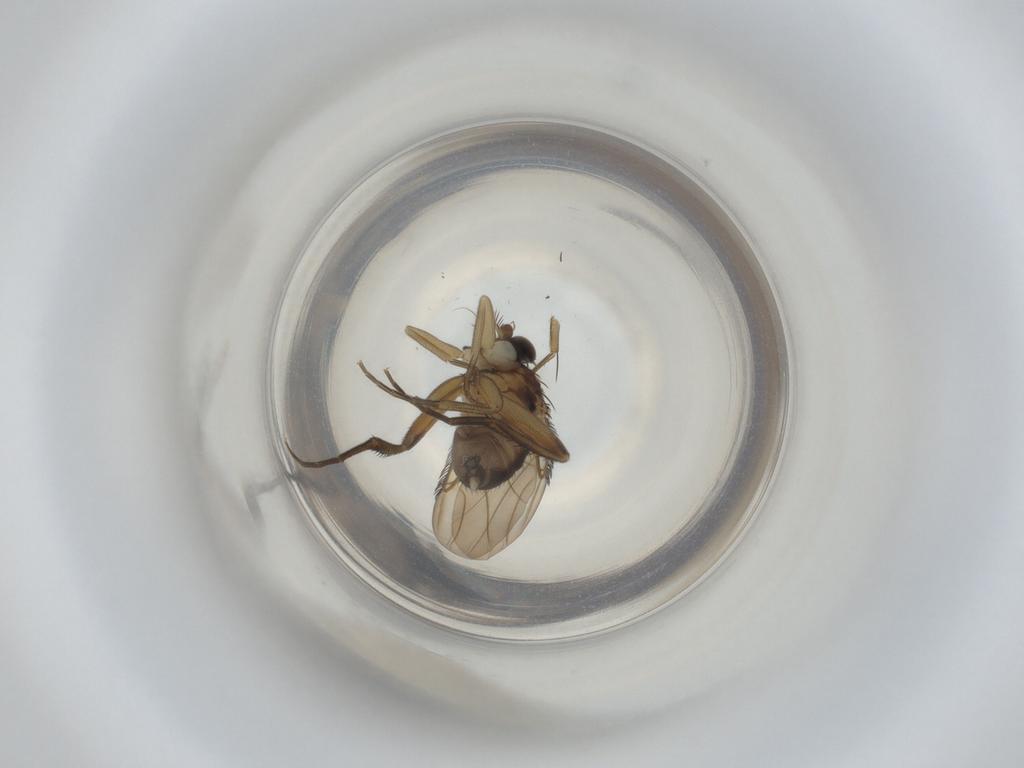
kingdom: Animalia
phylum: Arthropoda
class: Insecta
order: Diptera
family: Phoridae
